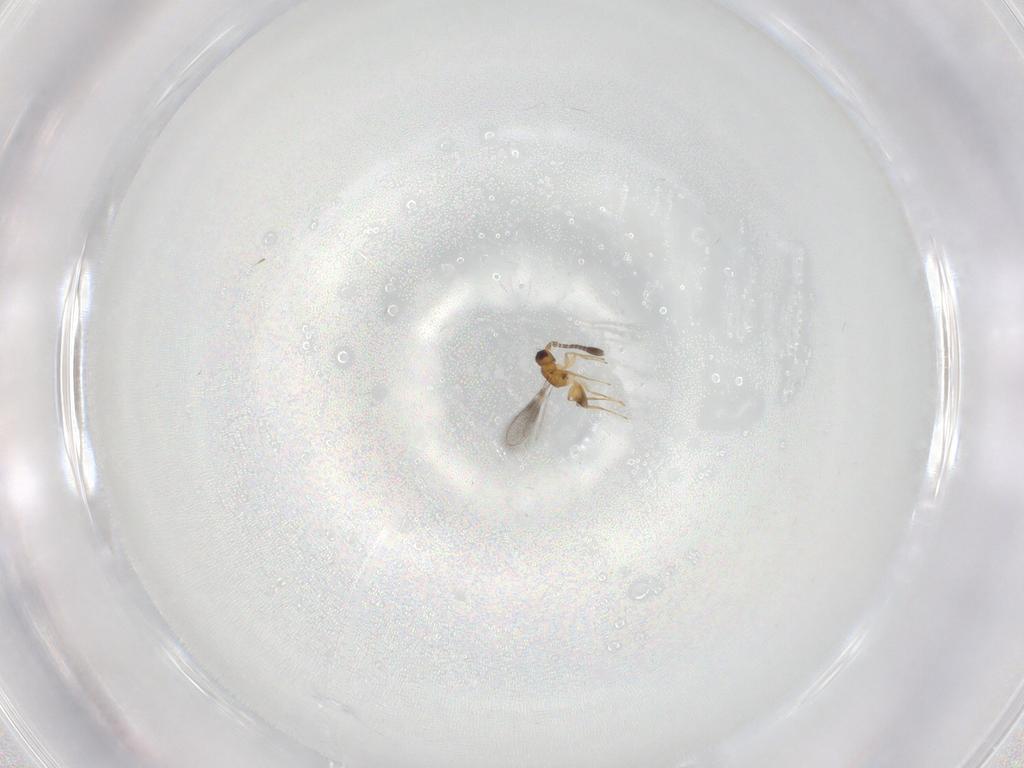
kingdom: Animalia
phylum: Arthropoda
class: Insecta
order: Hymenoptera
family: Mymaridae
